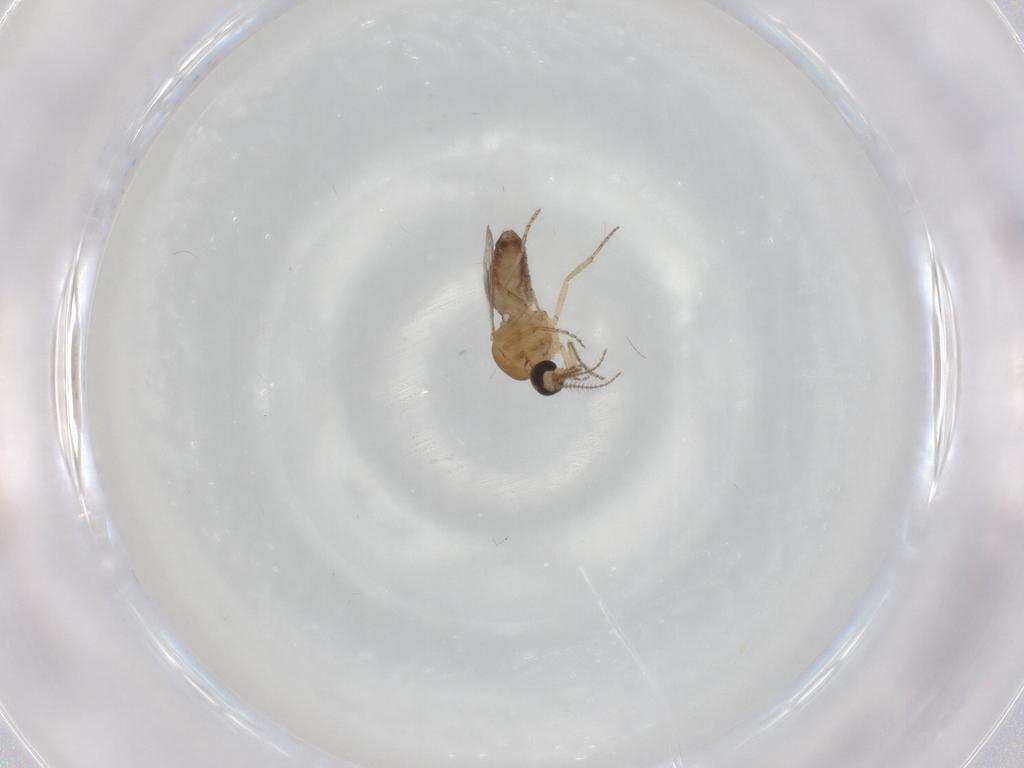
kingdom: Animalia
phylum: Arthropoda
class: Insecta
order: Diptera
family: Ceratopogonidae
